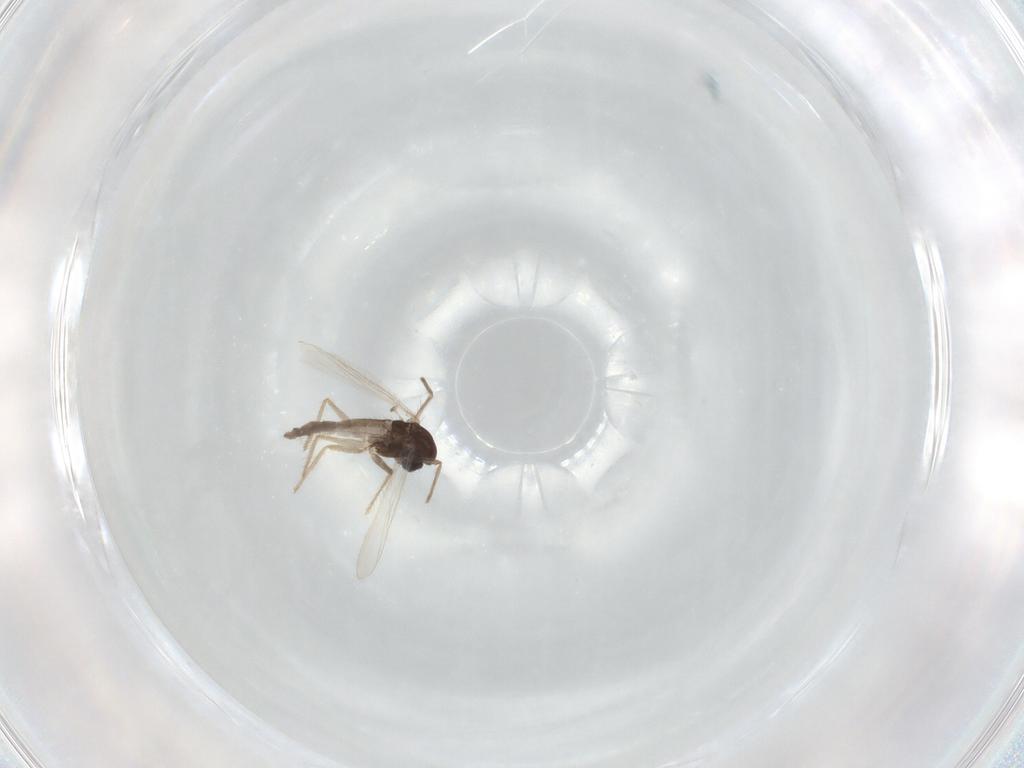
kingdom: Animalia
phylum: Arthropoda
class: Insecta
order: Diptera
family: Chironomidae
